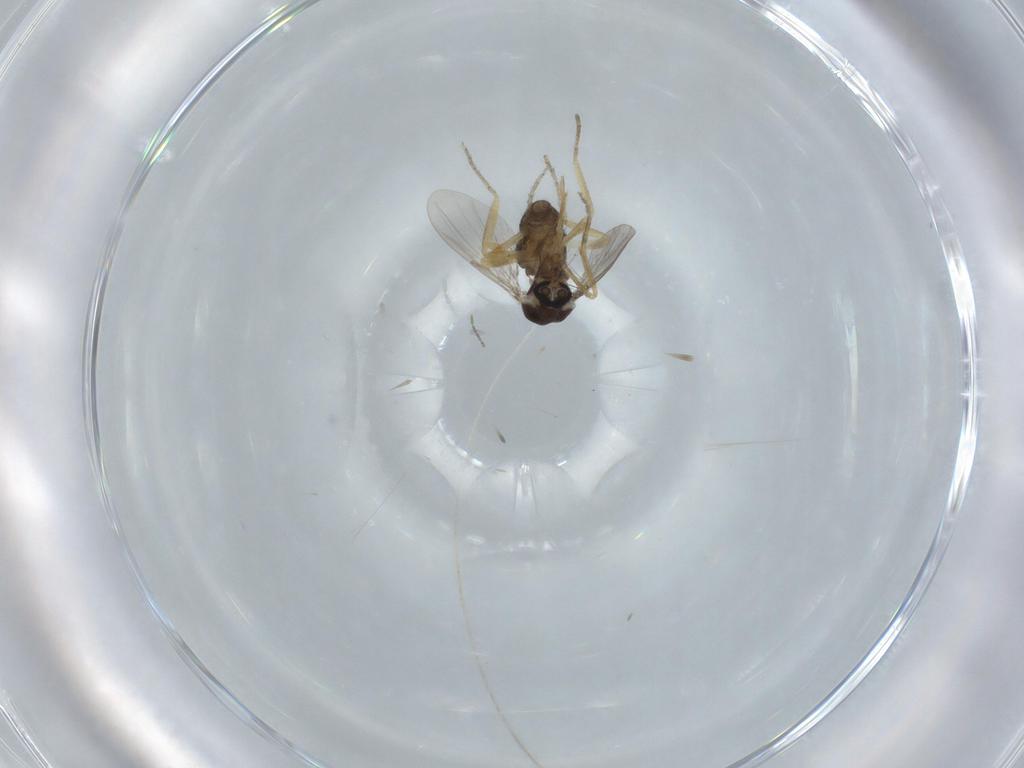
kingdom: Animalia
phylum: Arthropoda
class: Insecta
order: Diptera
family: Ceratopogonidae
